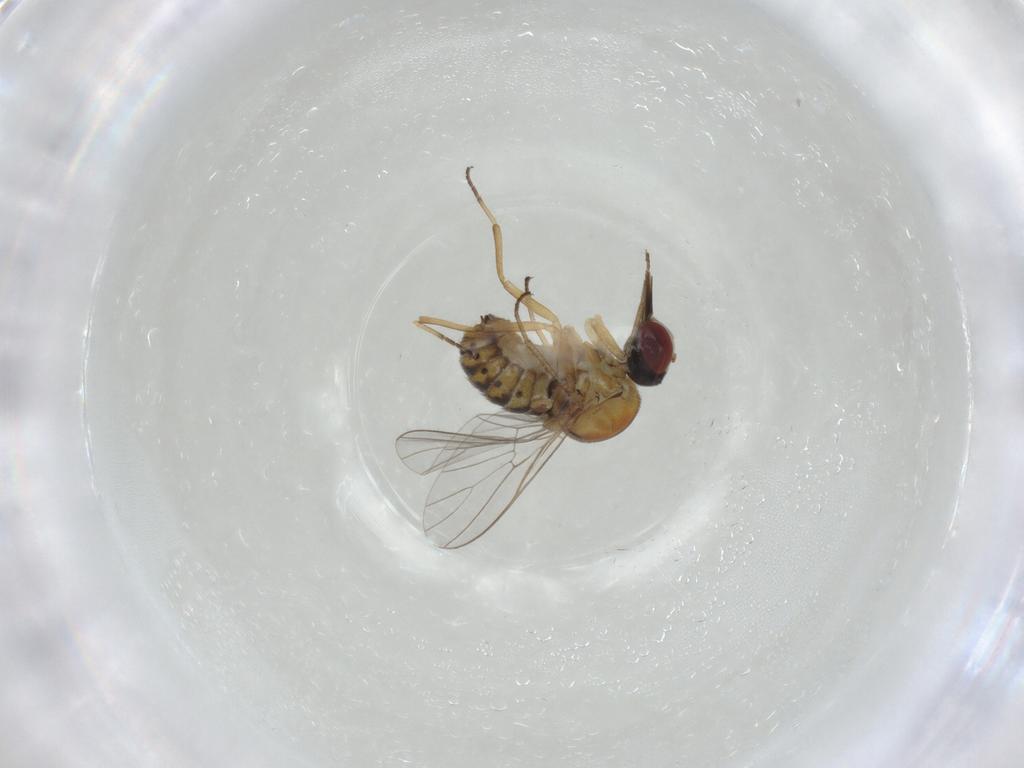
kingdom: Animalia
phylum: Arthropoda
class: Insecta
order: Diptera
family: Bombyliidae
